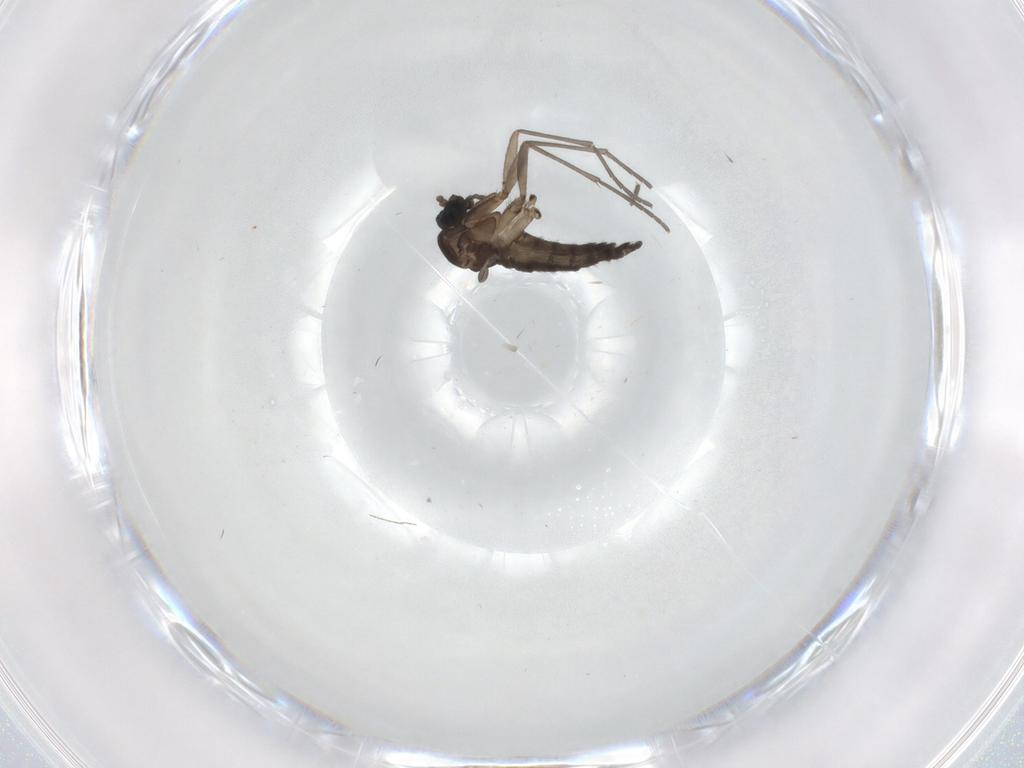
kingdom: Animalia
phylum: Arthropoda
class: Insecta
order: Diptera
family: Sciaridae
